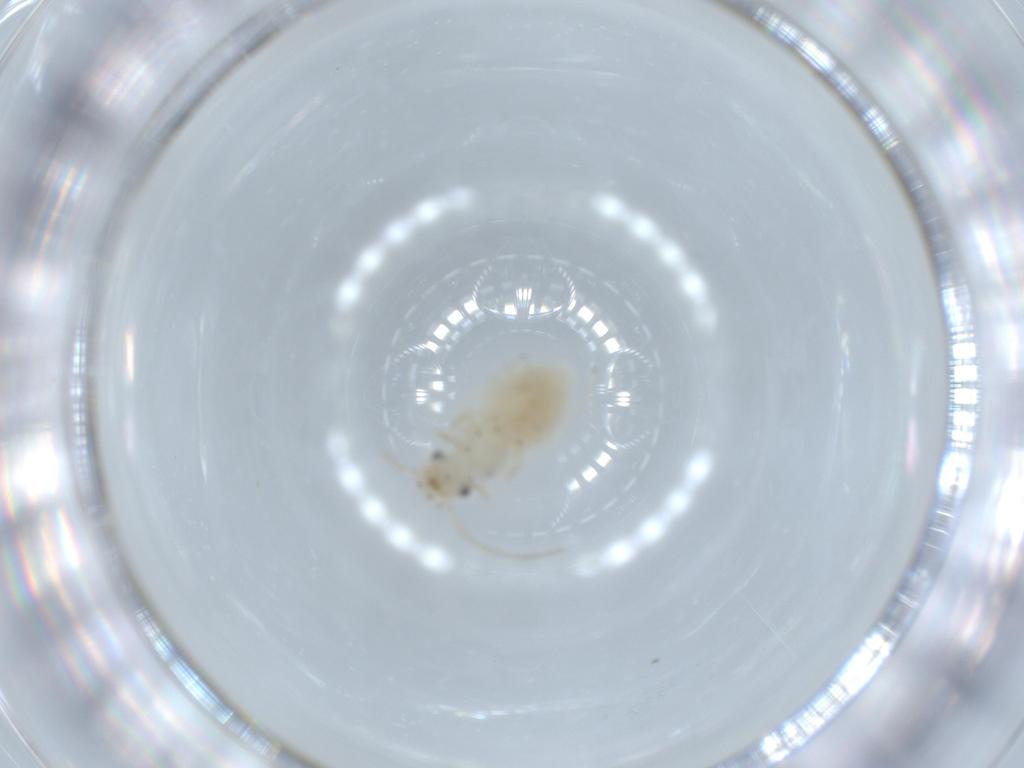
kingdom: Animalia
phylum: Arthropoda
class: Insecta
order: Psocodea
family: Caeciliusidae
